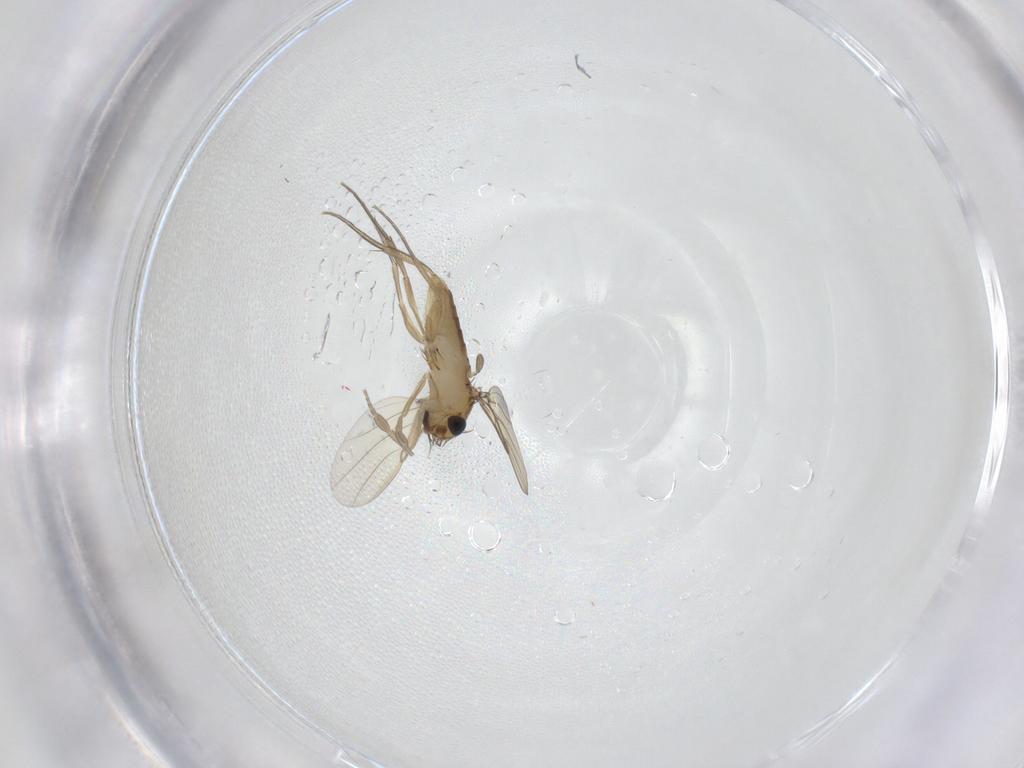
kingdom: Animalia
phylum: Arthropoda
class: Insecta
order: Diptera
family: Phoridae
